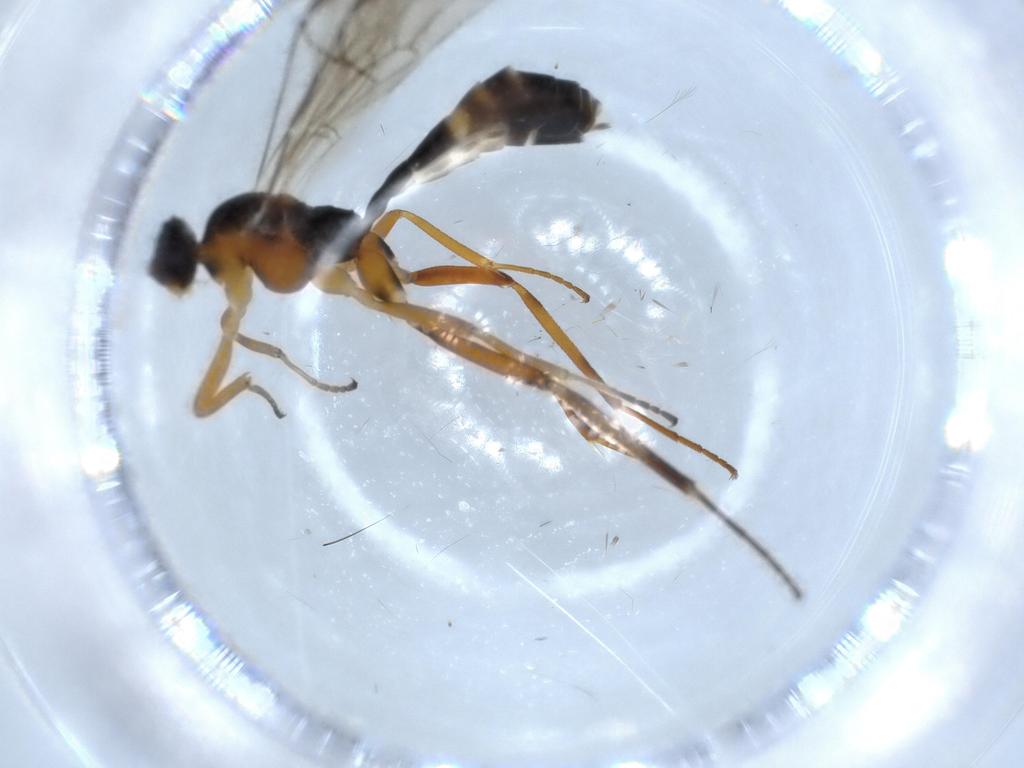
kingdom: Animalia
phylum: Arthropoda
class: Insecta
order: Hymenoptera
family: Ichneumonidae
